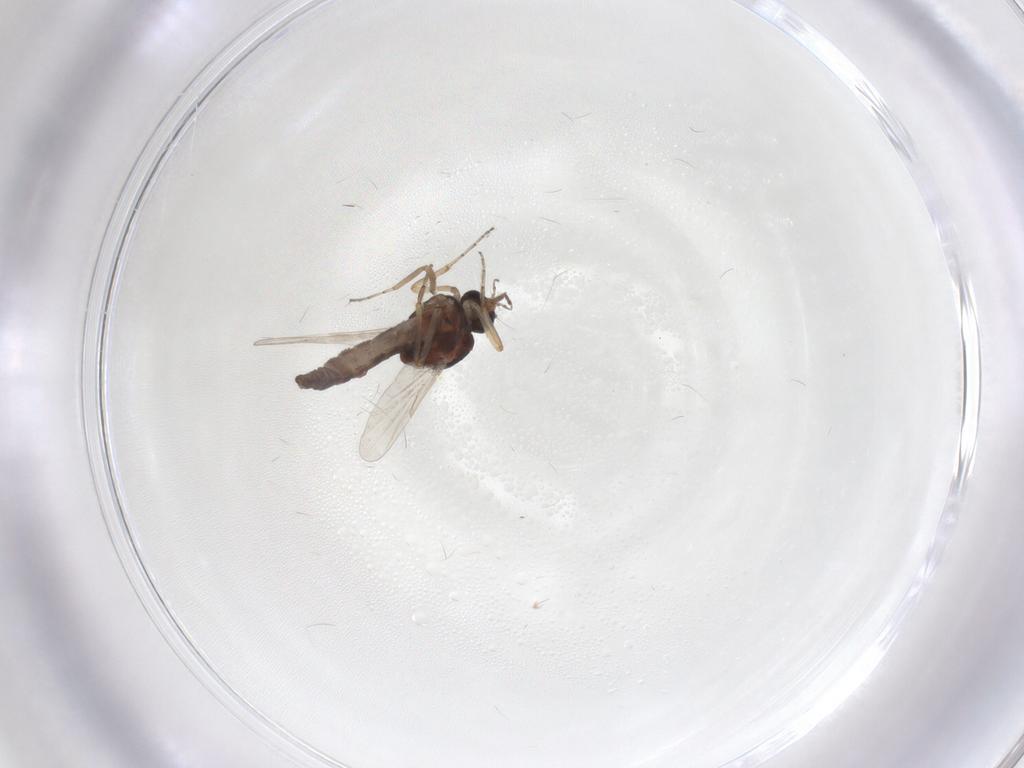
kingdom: Animalia
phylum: Arthropoda
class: Insecta
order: Diptera
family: Ceratopogonidae
